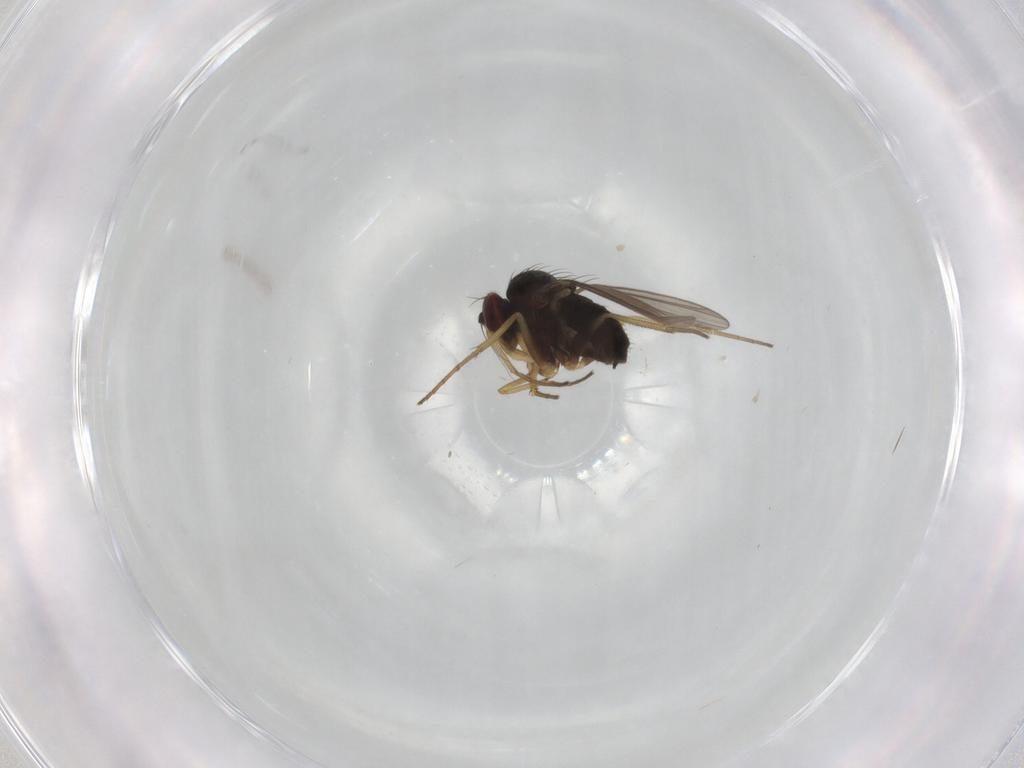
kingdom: Animalia
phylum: Arthropoda
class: Insecta
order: Diptera
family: Dolichopodidae
